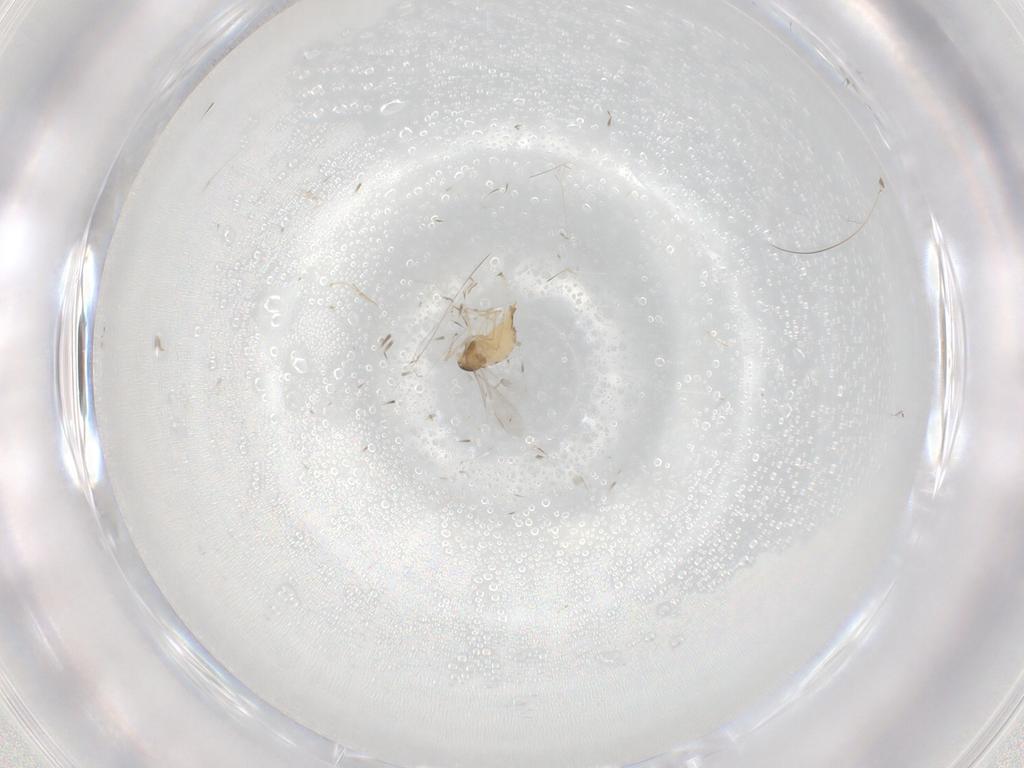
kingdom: Animalia
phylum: Arthropoda
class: Insecta
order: Diptera
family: Cecidomyiidae
